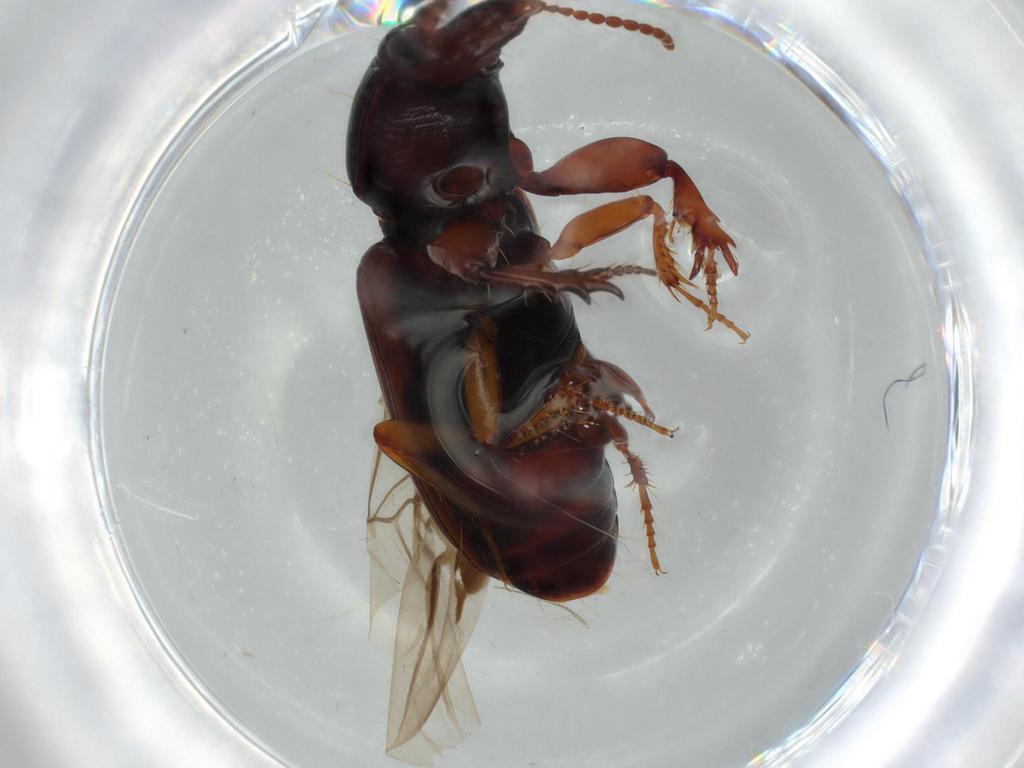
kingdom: Animalia
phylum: Arthropoda
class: Insecta
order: Coleoptera
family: Carabidae
